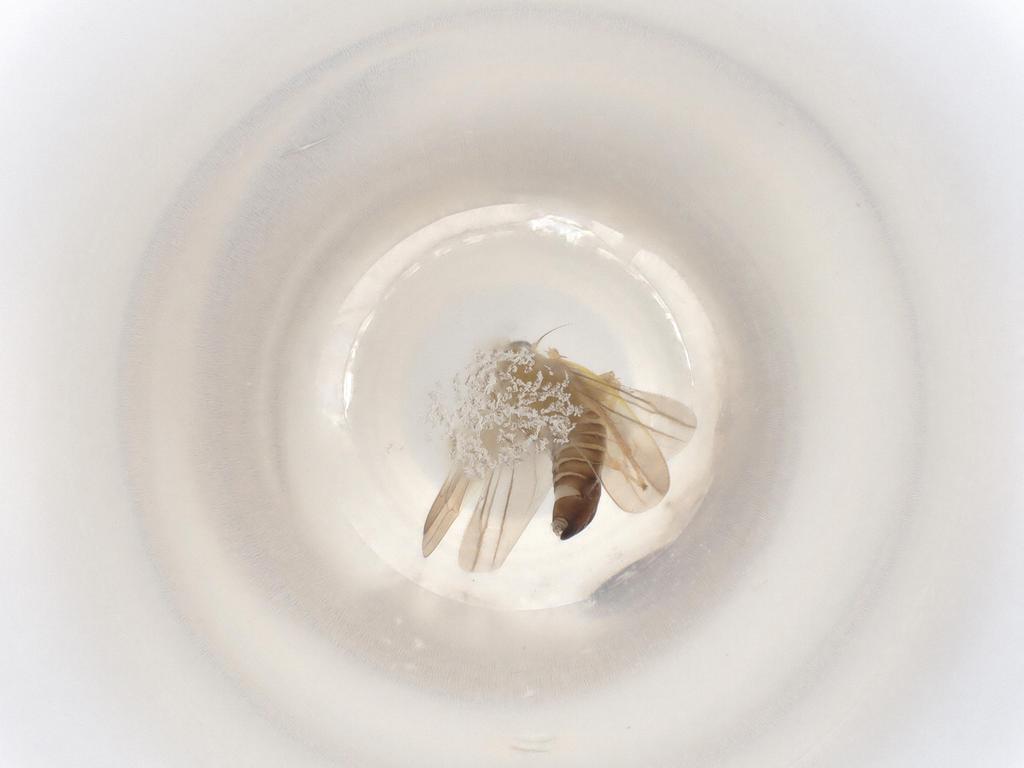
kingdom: Animalia
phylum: Arthropoda
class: Insecta
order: Hemiptera
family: Cicadellidae
